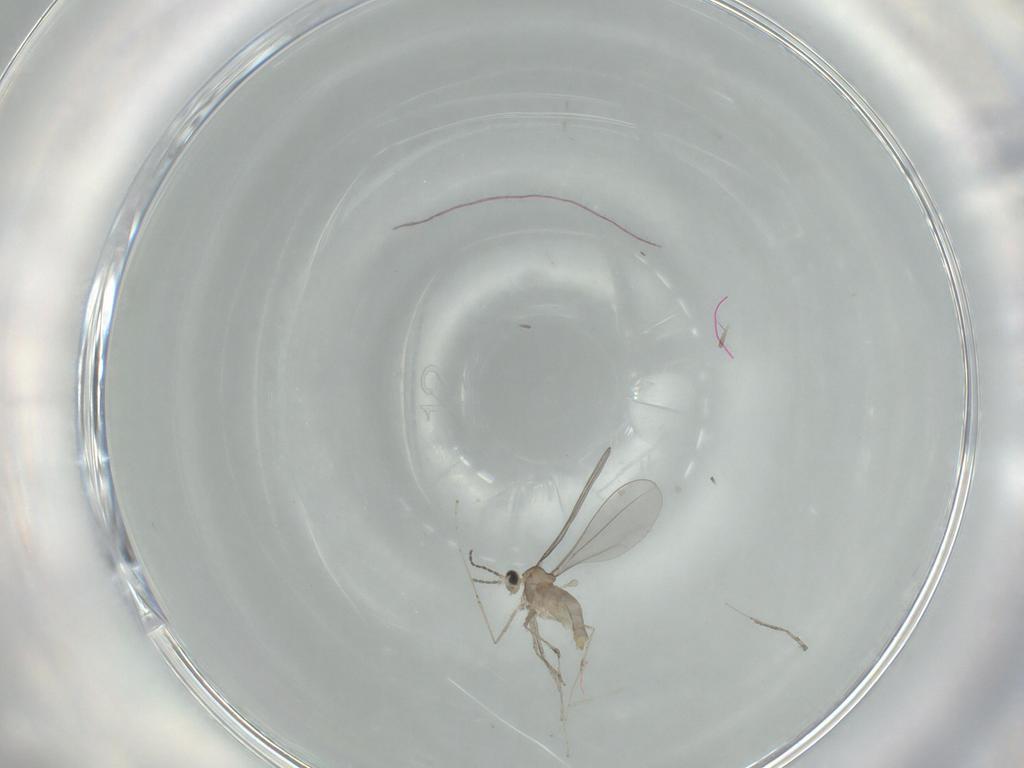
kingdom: Animalia
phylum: Arthropoda
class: Insecta
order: Diptera
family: Cecidomyiidae
